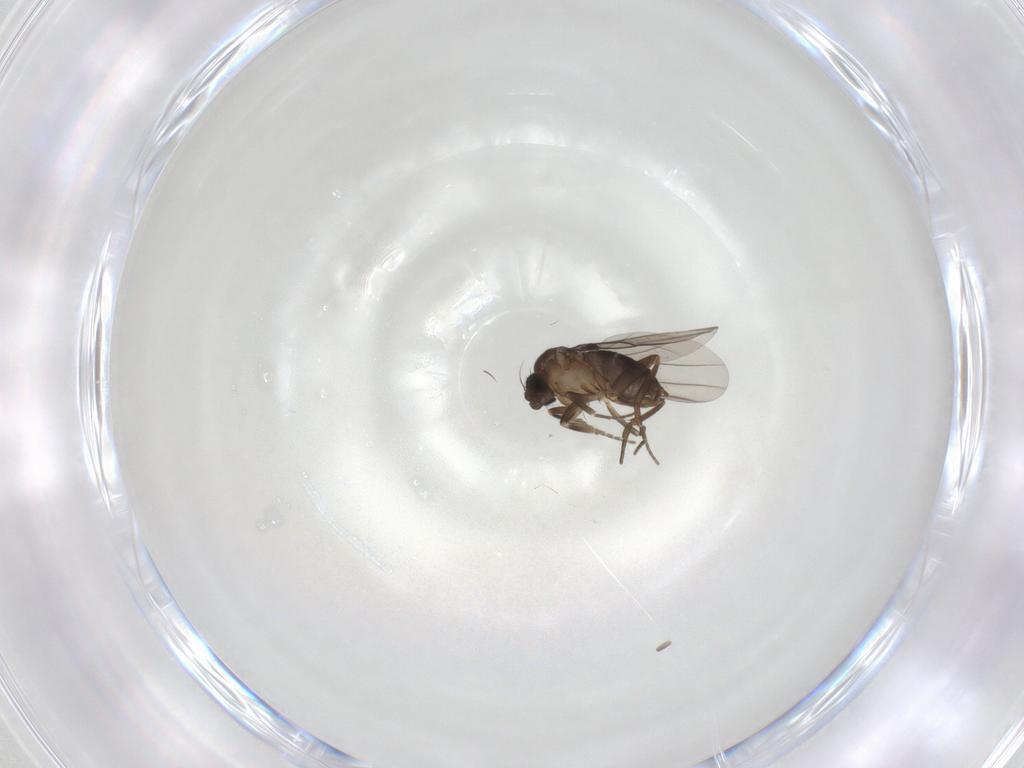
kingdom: Animalia
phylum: Arthropoda
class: Insecta
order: Diptera
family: Phoridae
